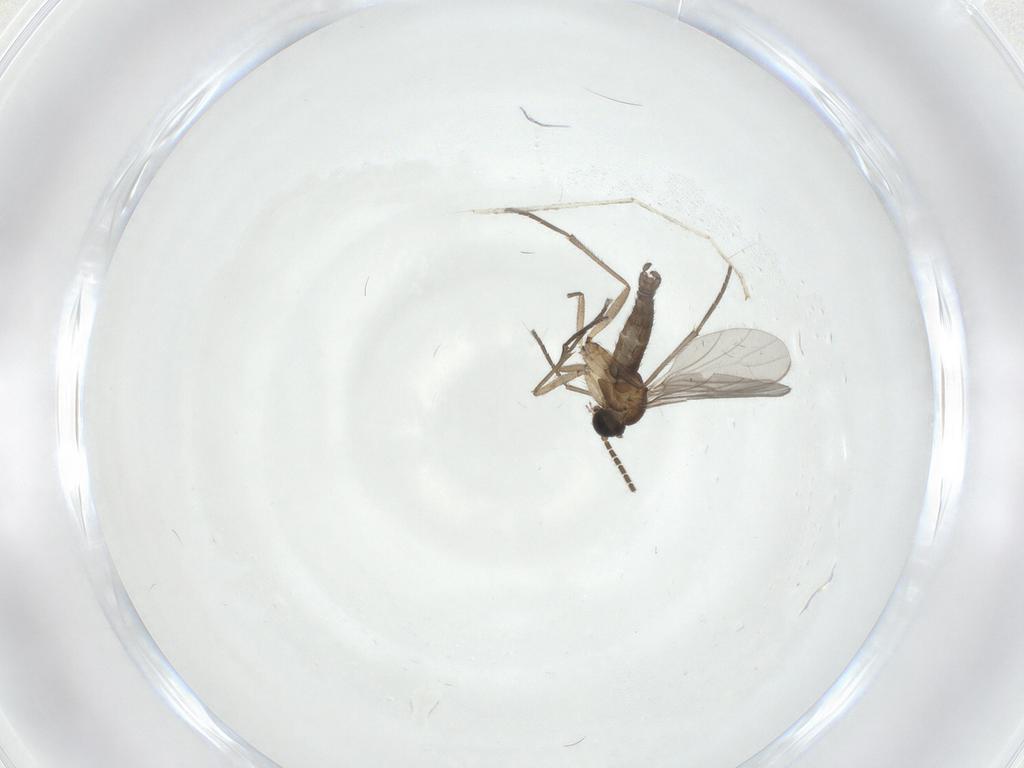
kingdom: Animalia
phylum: Arthropoda
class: Insecta
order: Diptera
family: Sciaridae
